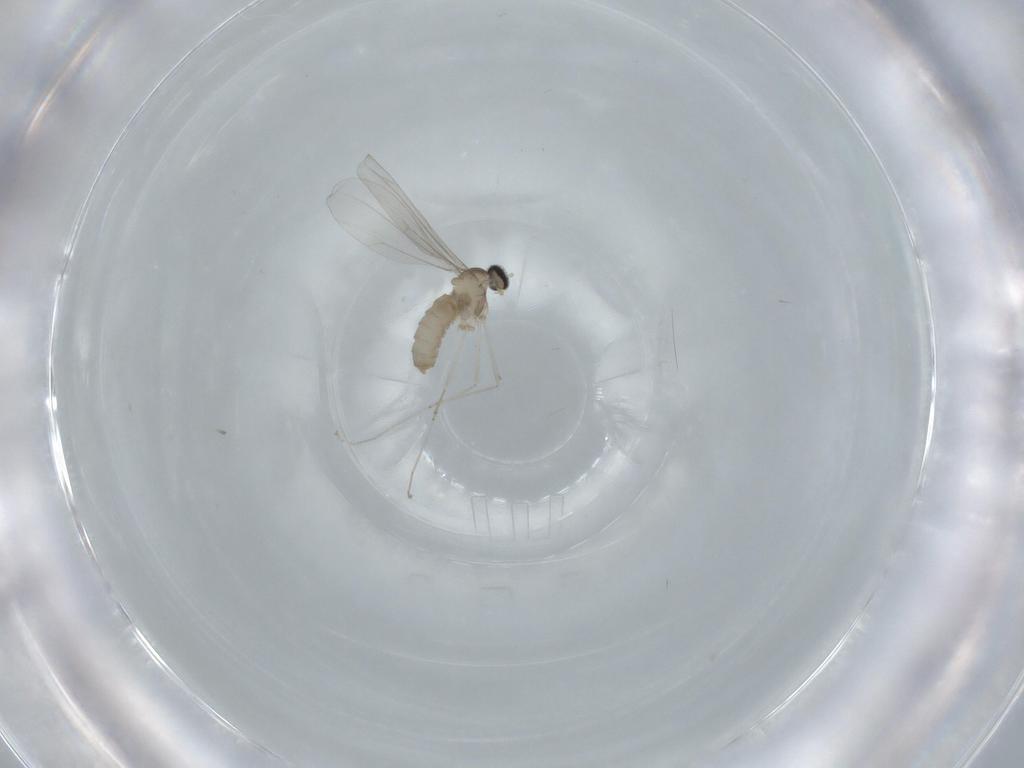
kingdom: Animalia
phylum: Arthropoda
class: Insecta
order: Diptera
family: Cecidomyiidae
